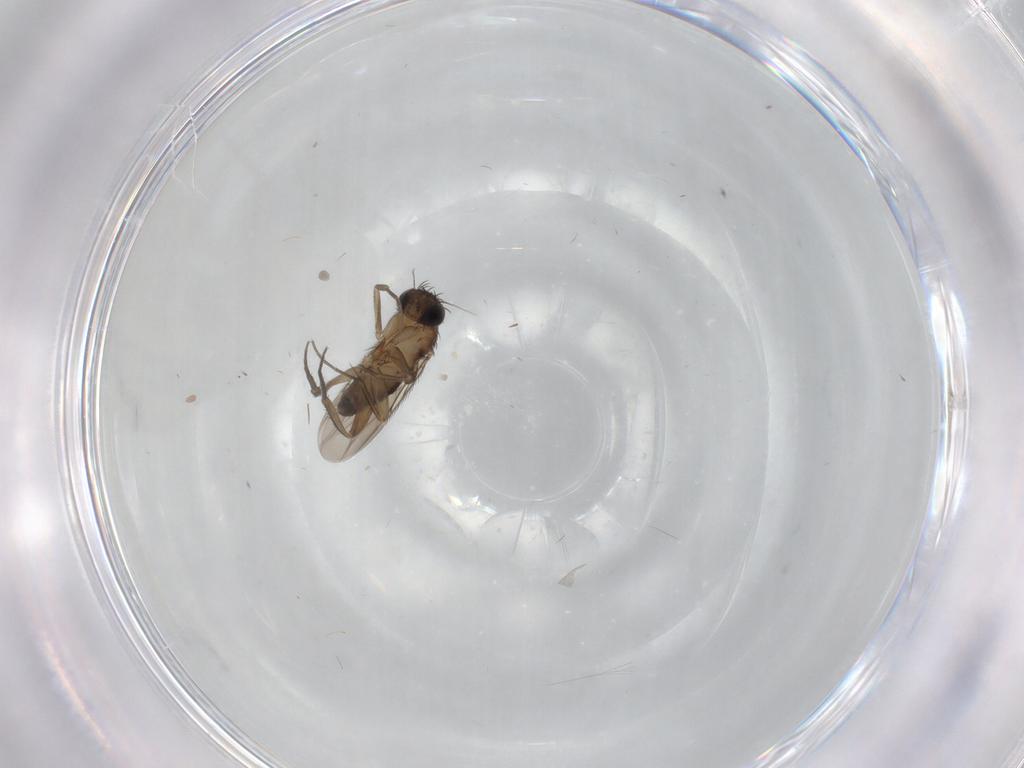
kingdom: Animalia
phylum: Arthropoda
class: Insecta
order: Diptera
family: Phoridae
